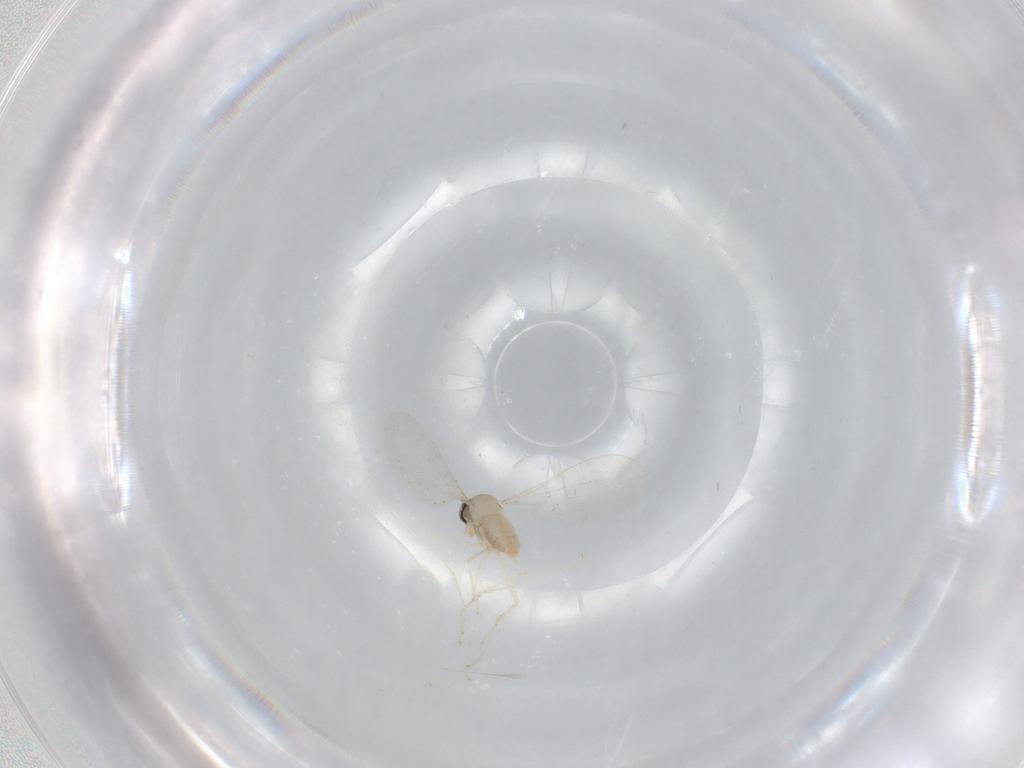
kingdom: Animalia
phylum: Arthropoda
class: Insecta
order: Diptera
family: Cecidomyiidae
